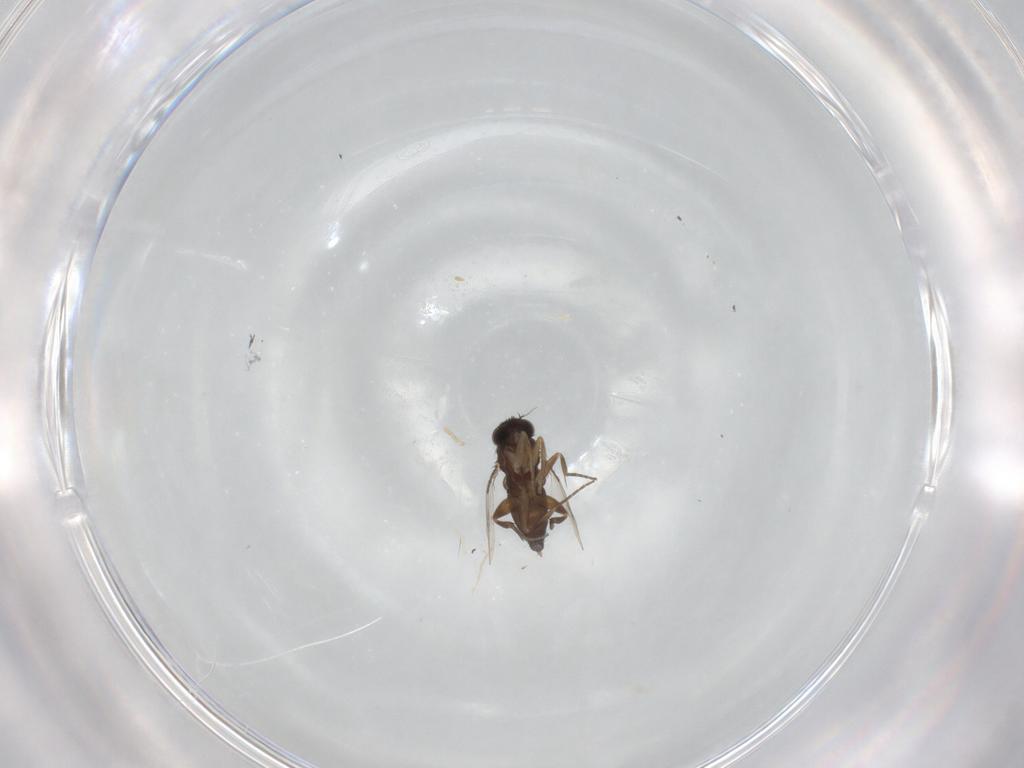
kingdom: Animalia
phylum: Arthropoda
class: Insecta
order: Diptera
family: Phoridae
